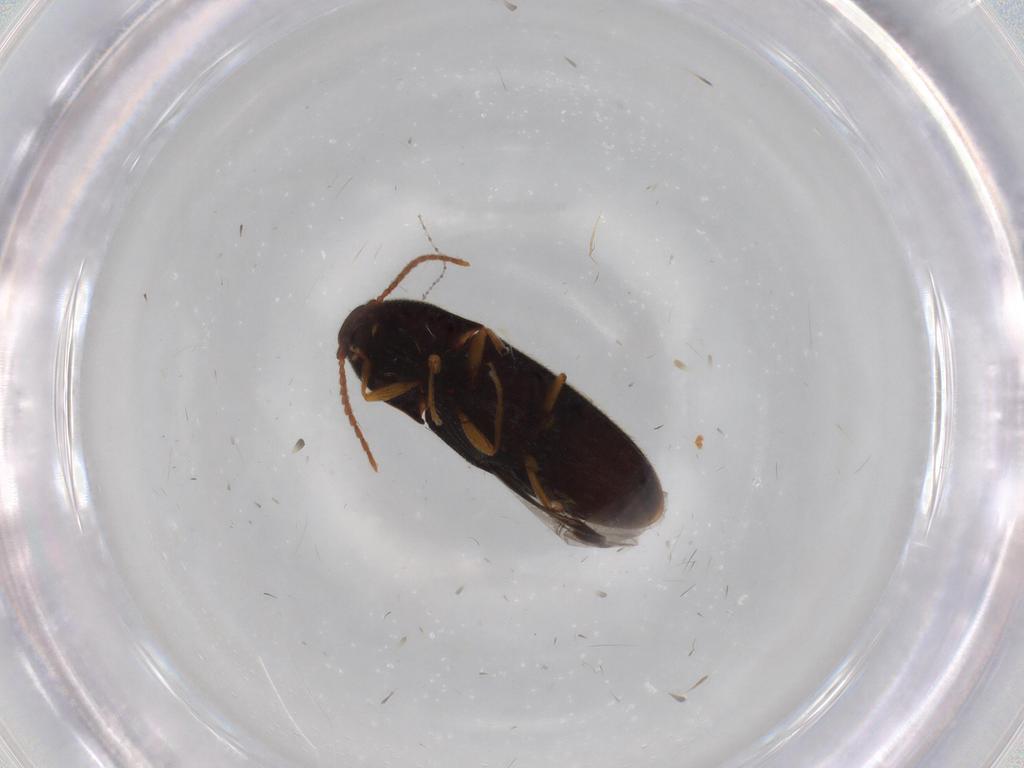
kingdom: Animalia
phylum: Arthropoda
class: Insecta
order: Coleoptera
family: Elateridae
